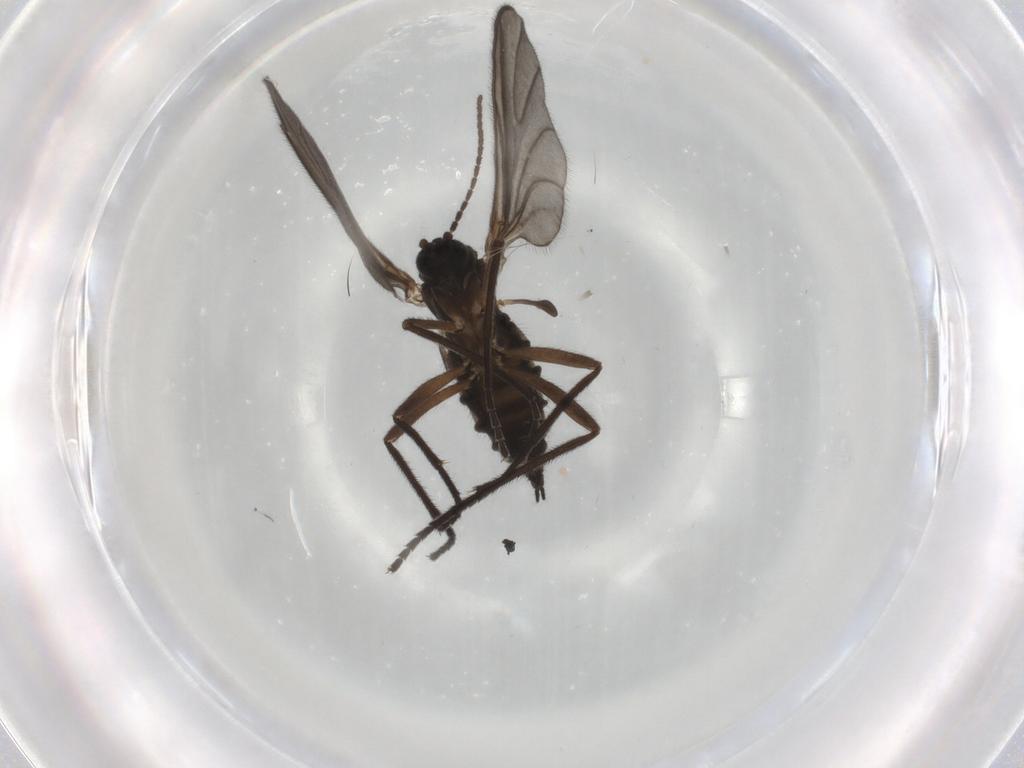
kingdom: Animalia
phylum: Arthropoda
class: Insecta
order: Diptera
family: Sciaridae
